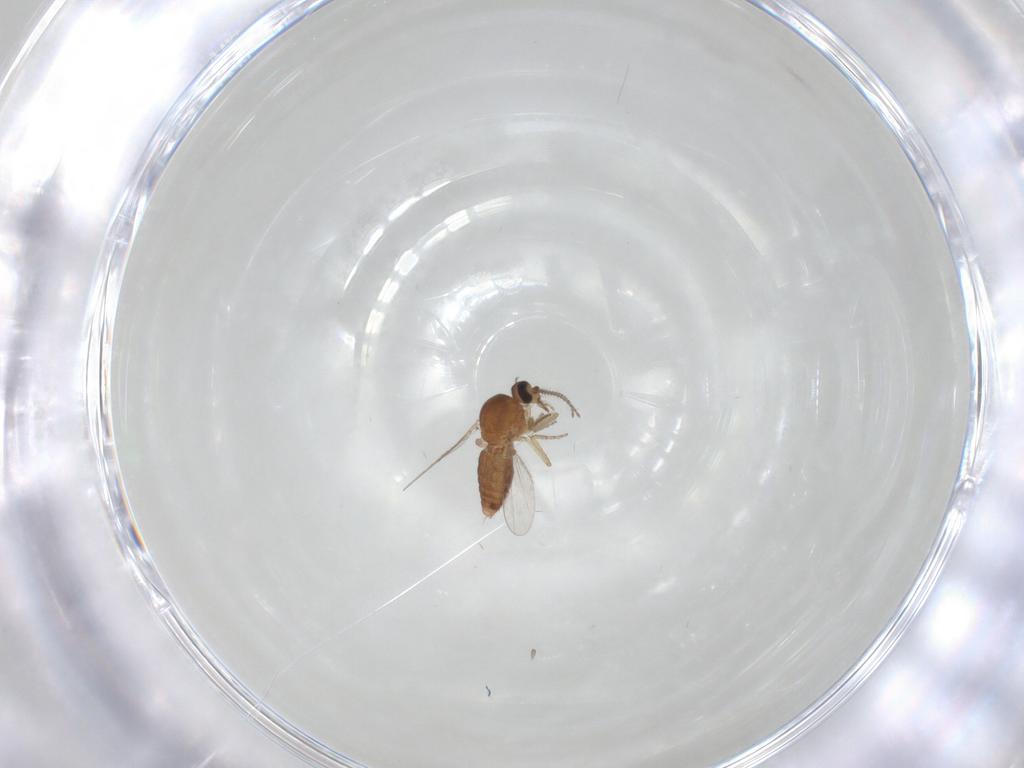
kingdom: Animalia
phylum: Arthropoda
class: Insecta
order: Diptera
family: Ceratopogonidae
